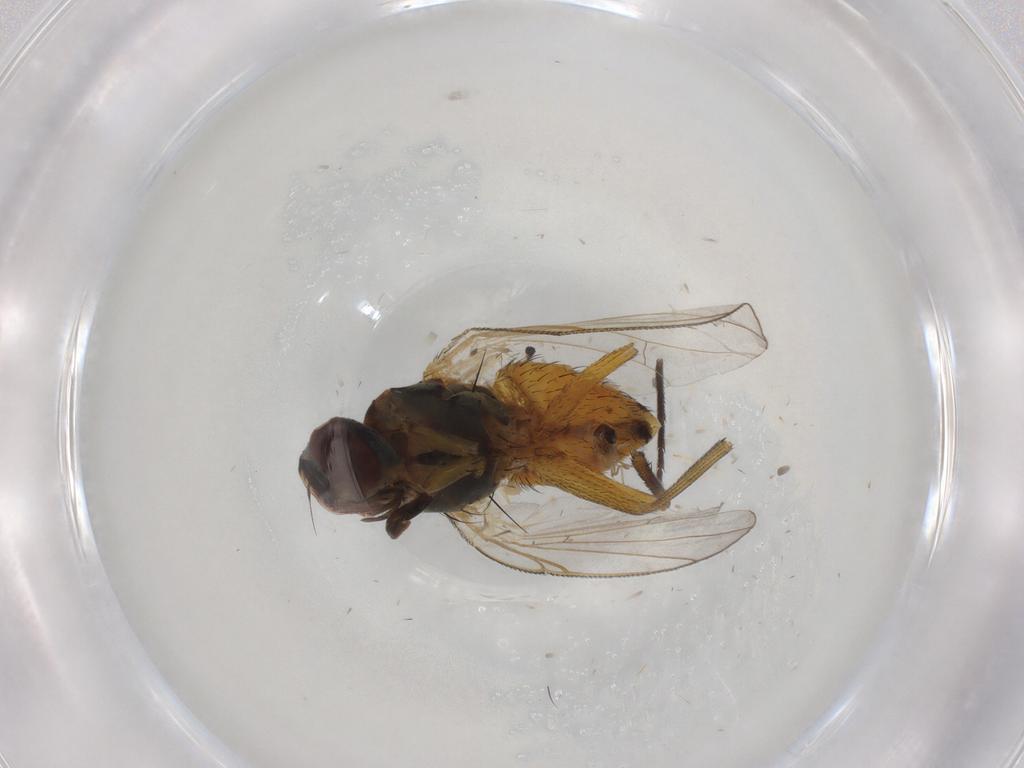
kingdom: Animalia
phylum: Arthropoda
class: Insecta
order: Diptera
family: Muscidae
